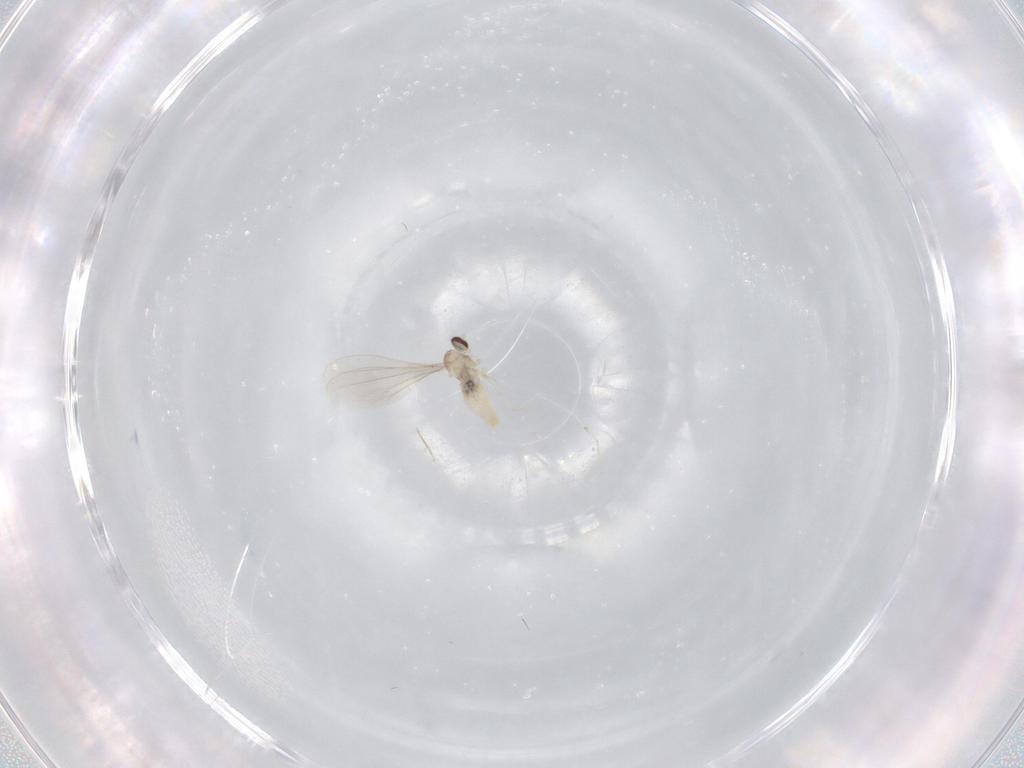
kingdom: Animalia
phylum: Arthropoda
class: Insecta
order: Diptera
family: Cecidomyiidae
